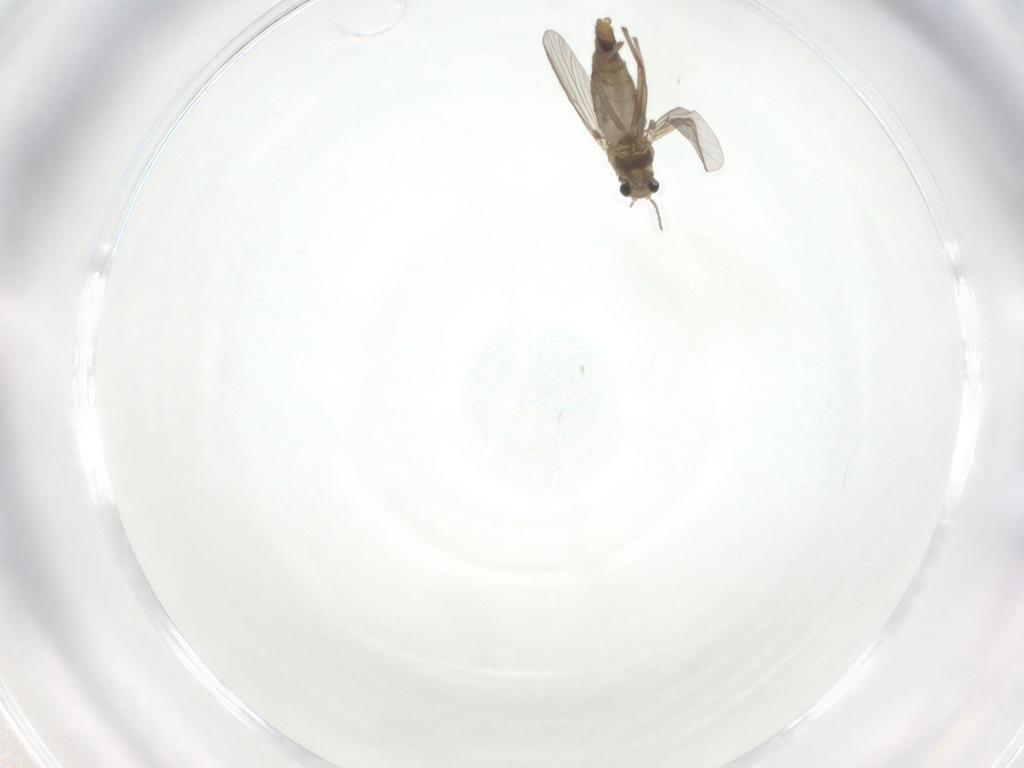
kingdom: Animalia
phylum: Arthropoda
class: Insecta
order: Diptera
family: Chironomidae
